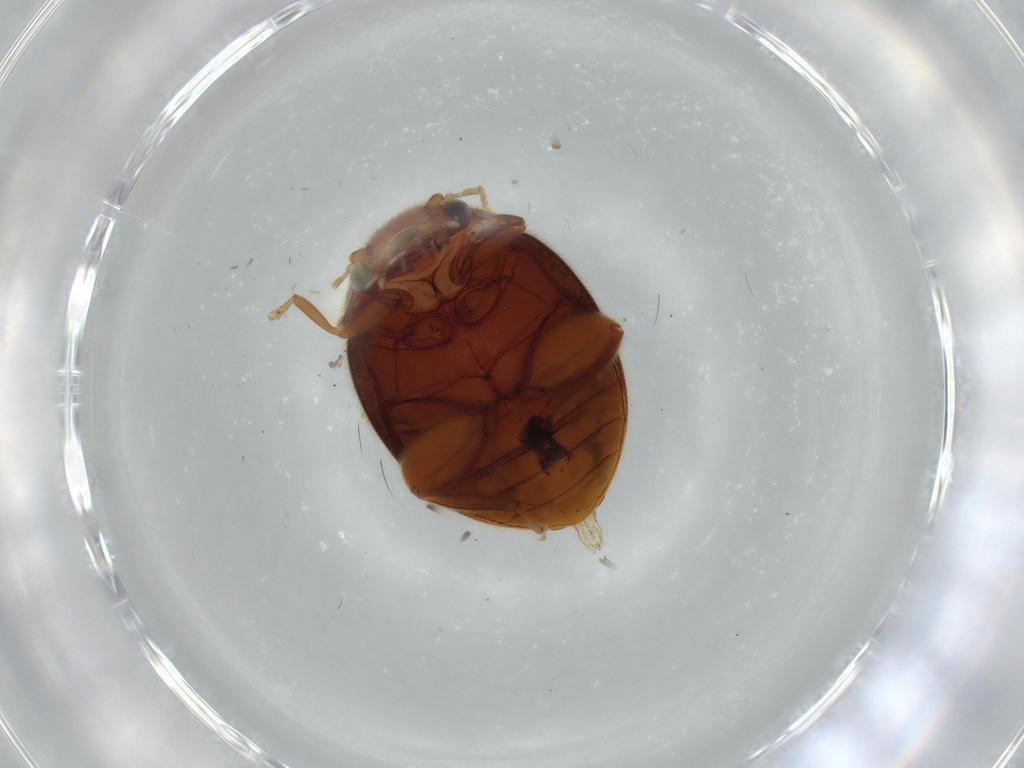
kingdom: Animalia
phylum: Arthropoda
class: Insecta
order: Coleoptera
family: Scirtidae
